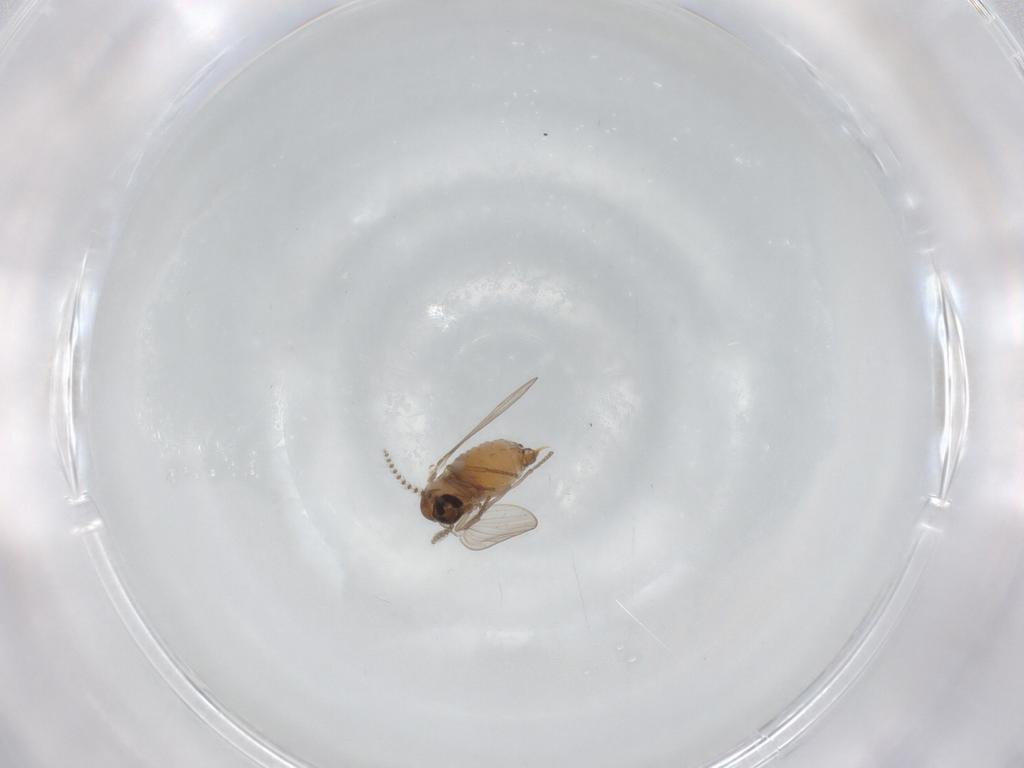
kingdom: Animalia
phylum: Arthropoda
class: Insecta
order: Diptera
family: Psychodidae
